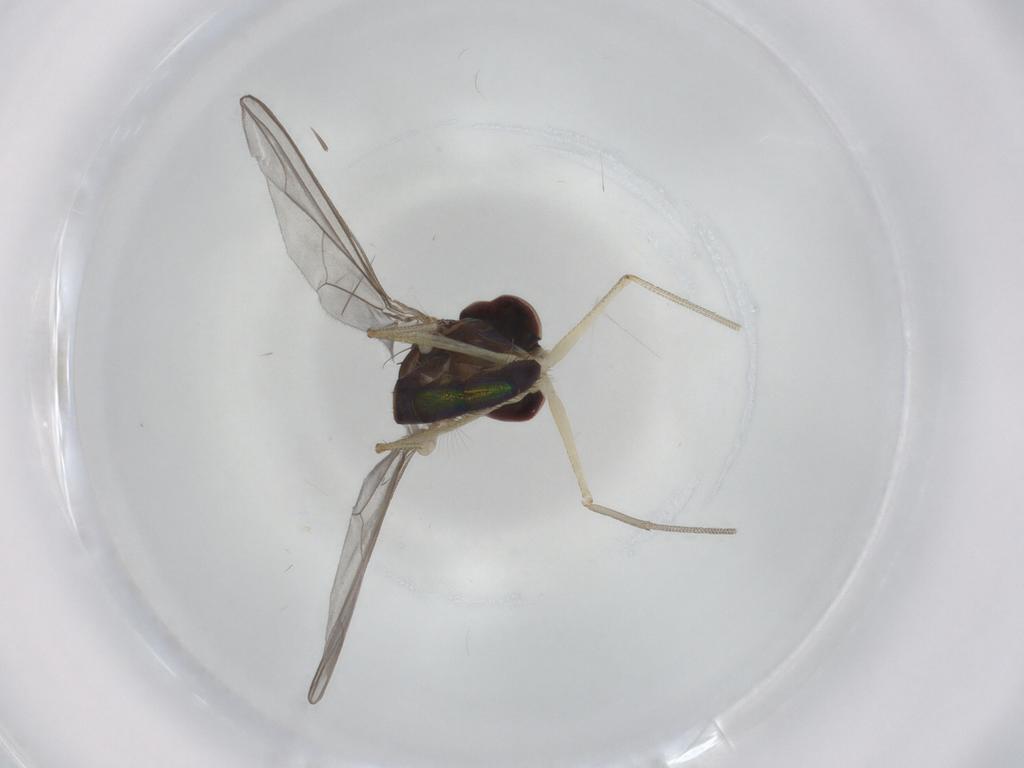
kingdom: Animalia
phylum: Arthropoda
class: Insecta
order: Diptera
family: Dolichopodidae
